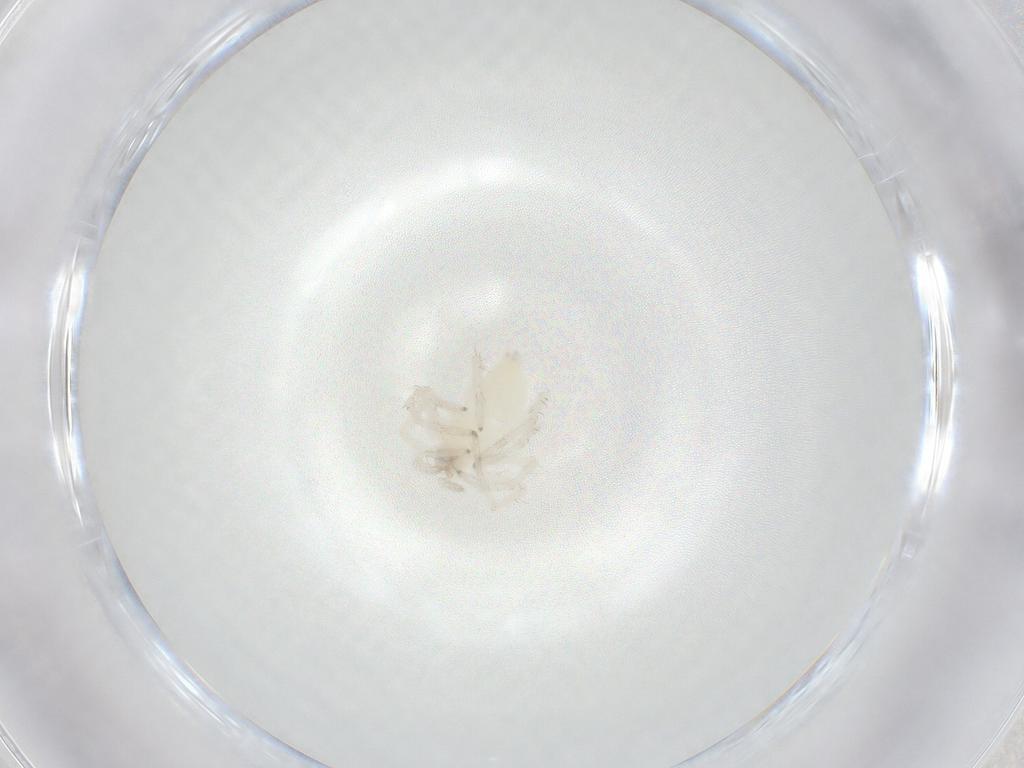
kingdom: Animalia
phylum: Arthropoda
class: Arachnida
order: Araneae
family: Anyphaenidae
